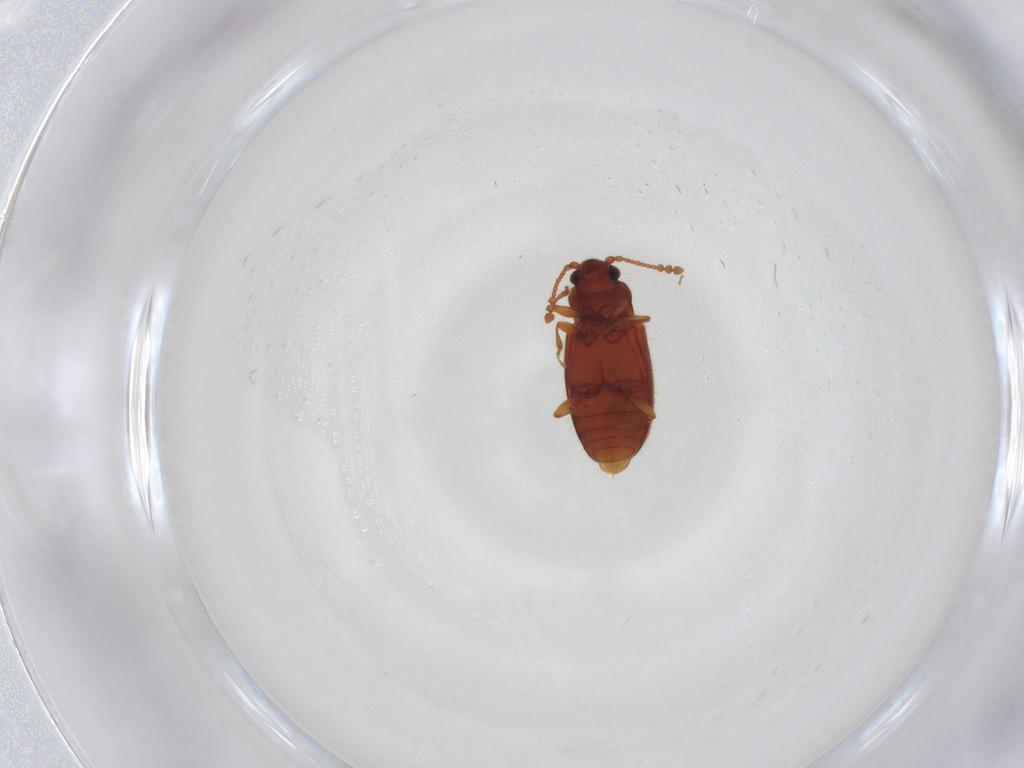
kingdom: Animalia
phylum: Arthropoda
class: Insecta
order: Coleoptera
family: Cryptophagidae
